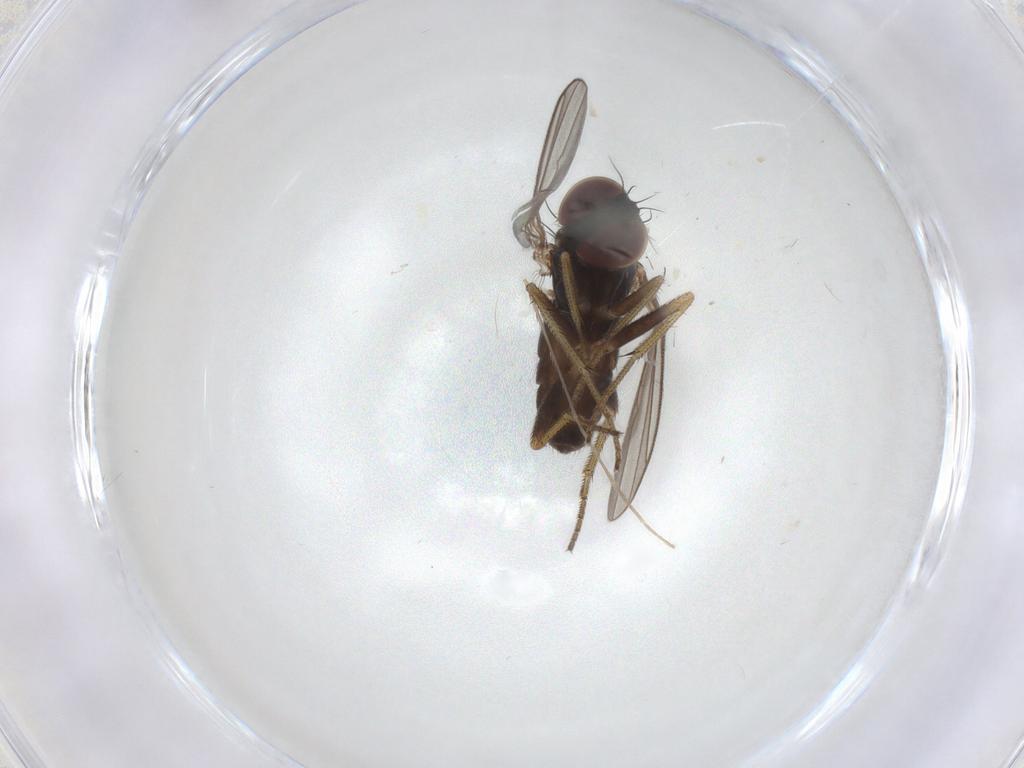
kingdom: Animalia
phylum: Arthropoda
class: Insecta
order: Diptera
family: Dolichopodidae
